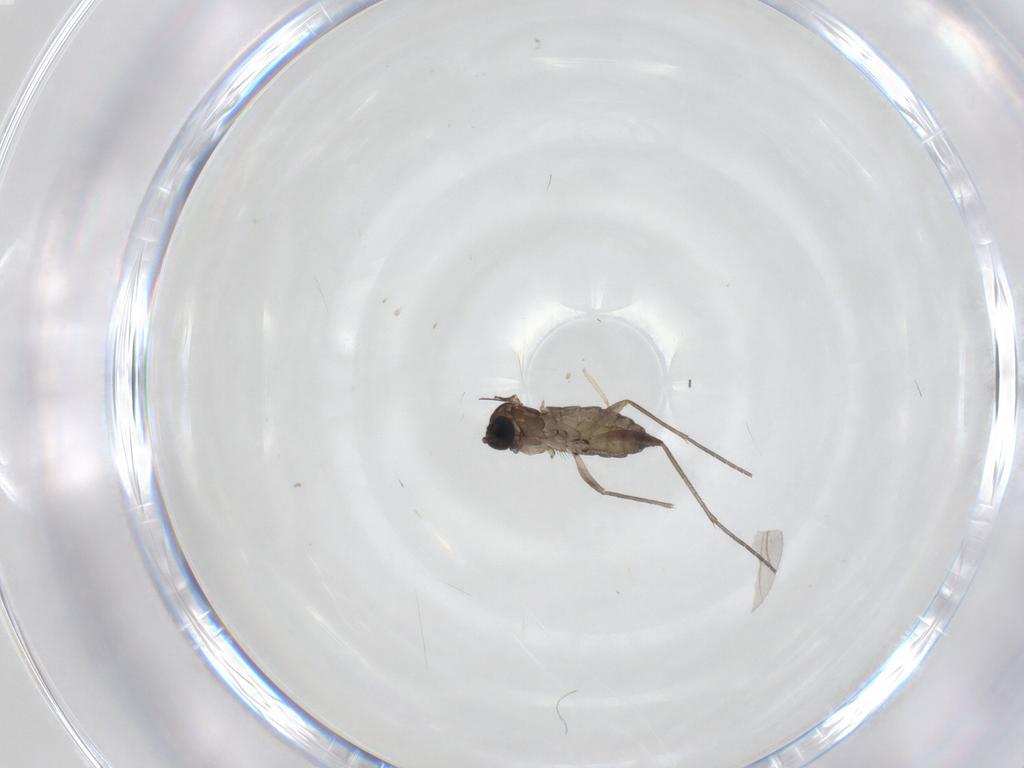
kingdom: Animalia
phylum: Arthropoda
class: Insecta
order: Diptera
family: Sciaridae
